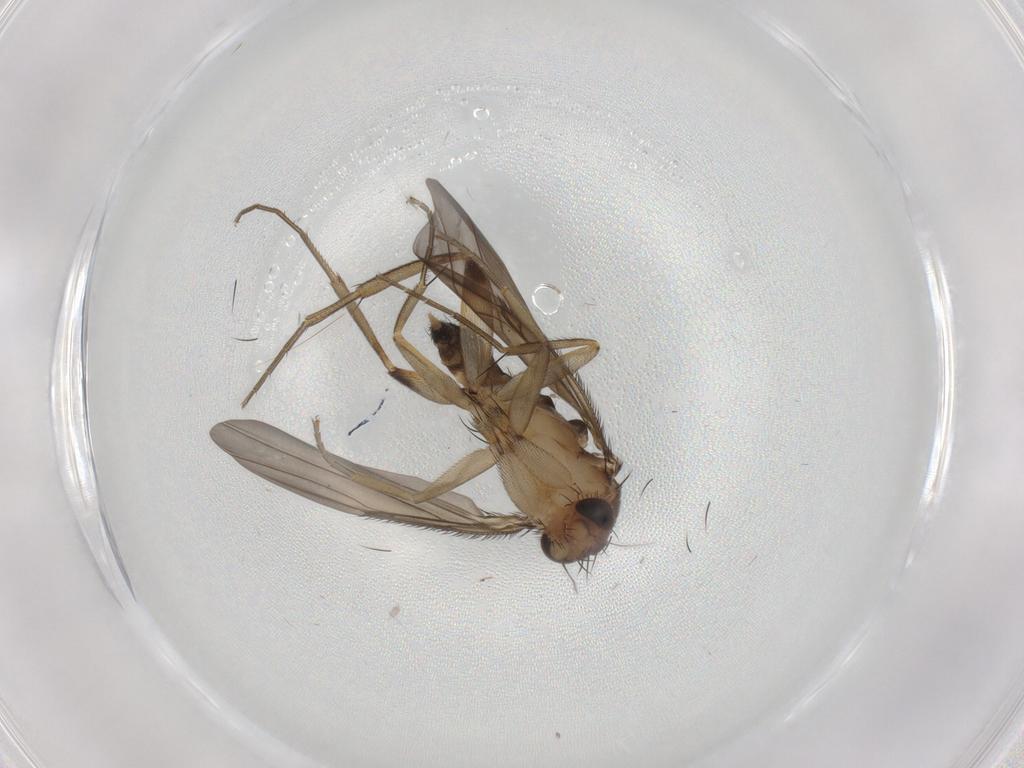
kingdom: Animalia
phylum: Arthropoda
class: Insecta
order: Diptera
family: Phoridae
